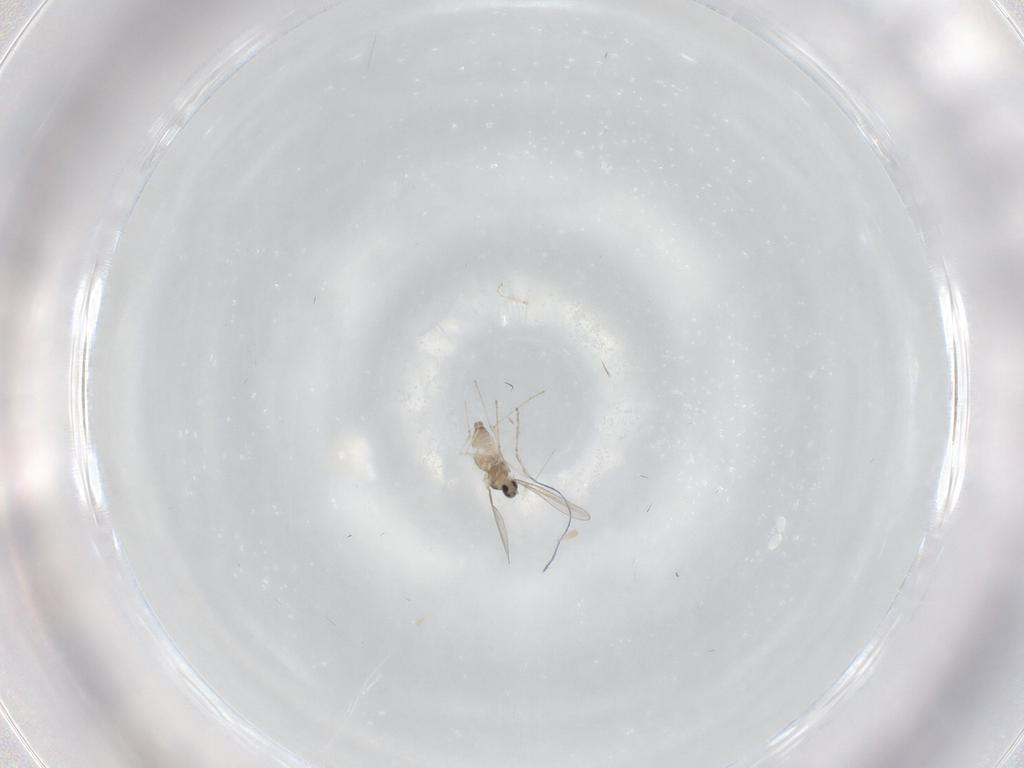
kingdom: Animalia
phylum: Arthropoda
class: Insecta
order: Diptera
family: Cecidomyiidae
